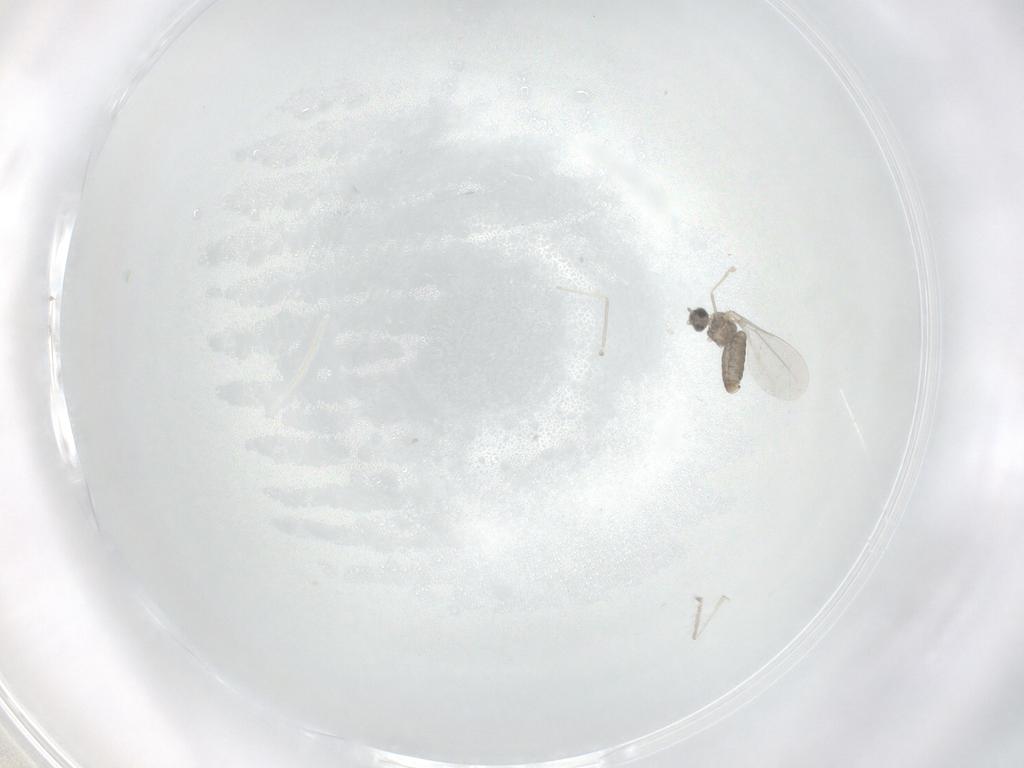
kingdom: Animalia
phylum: Arthropoda
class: Insecta
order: Diptera
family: Cecidomyiidae
